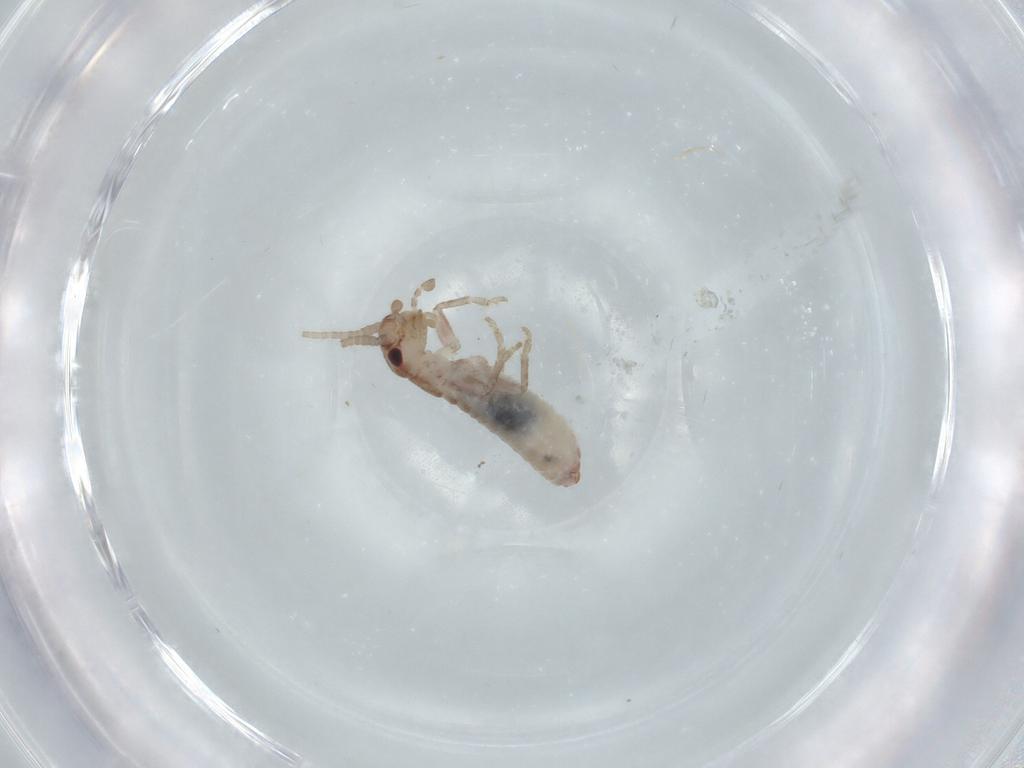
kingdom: Animalia
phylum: Arthropoda
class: Insecta
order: Orthoptera
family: Mogoplistidae
